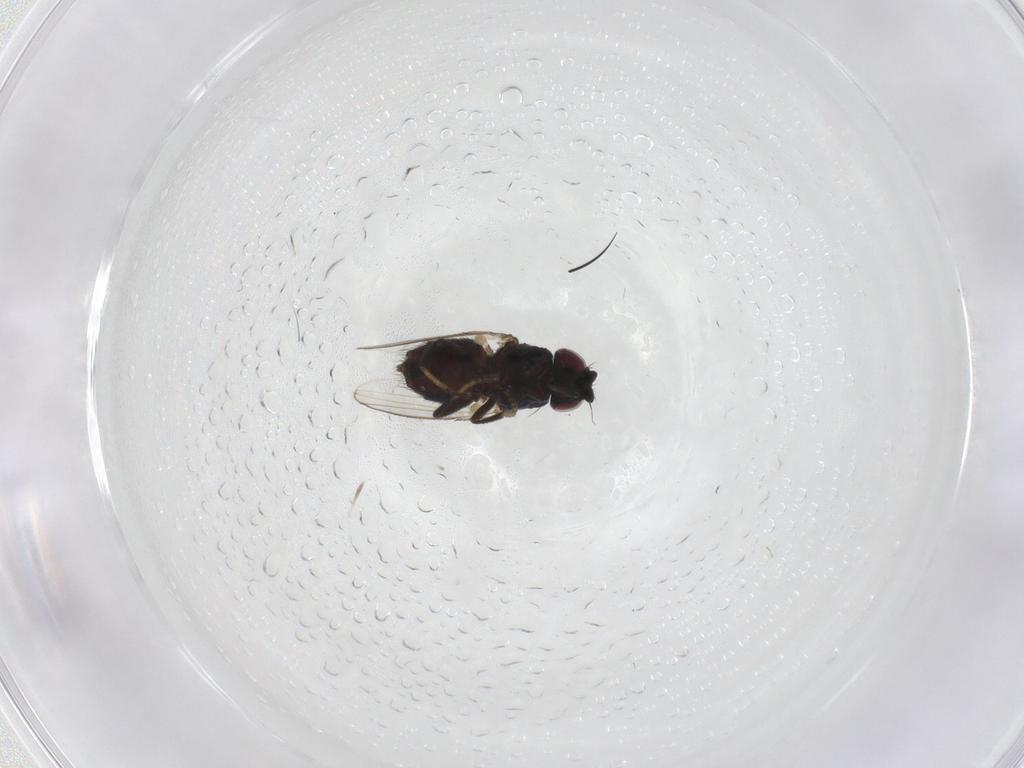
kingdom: Animalia
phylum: Arthropoda
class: Insecta
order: Diptera
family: Milichiidae
